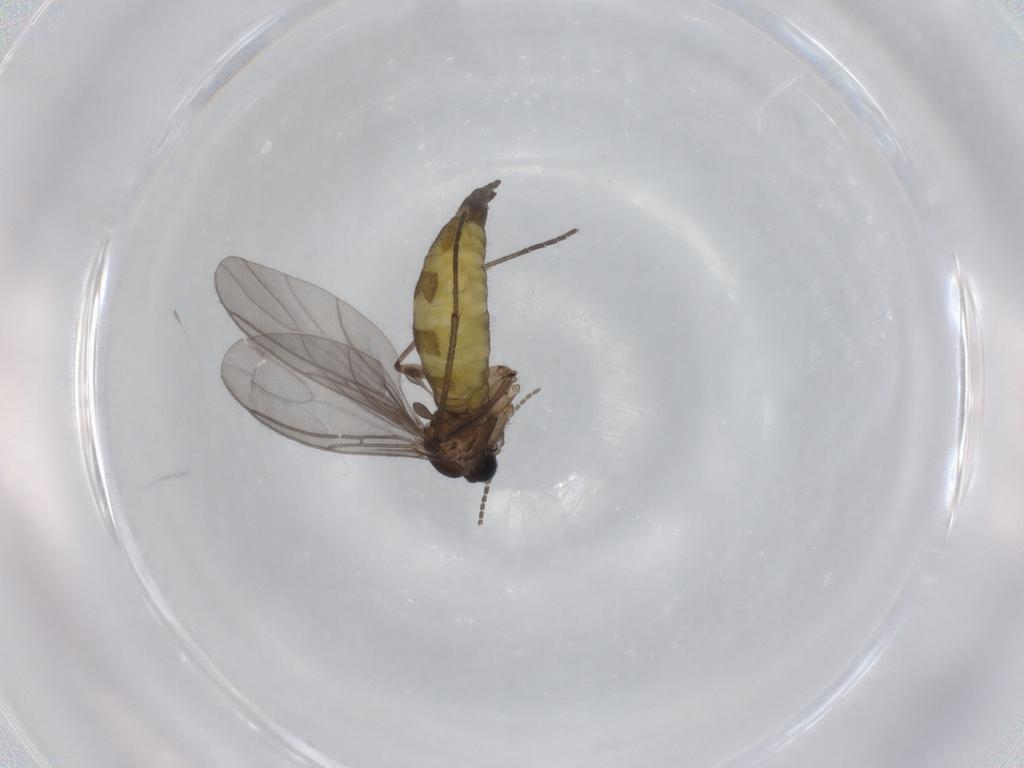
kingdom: Animalia
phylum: Arthropoda
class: Insecta
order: Diptera
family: Sciaridae
